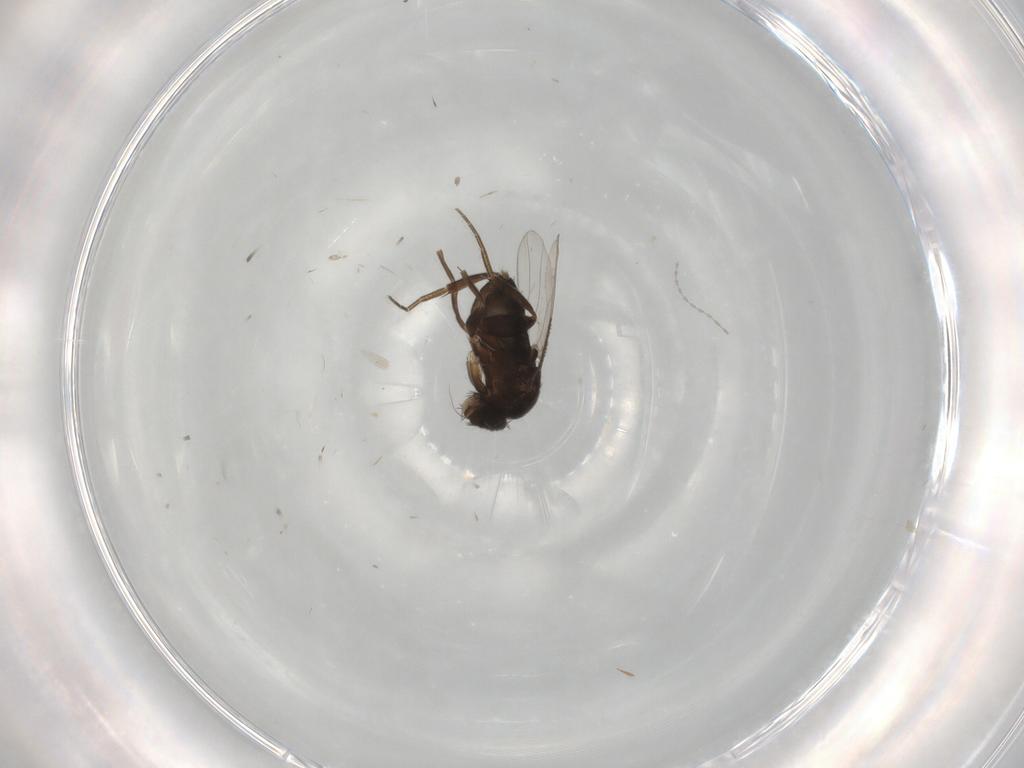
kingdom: Animalia
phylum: Arthropoda
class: Insecta
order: Diptera
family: Phoridae
